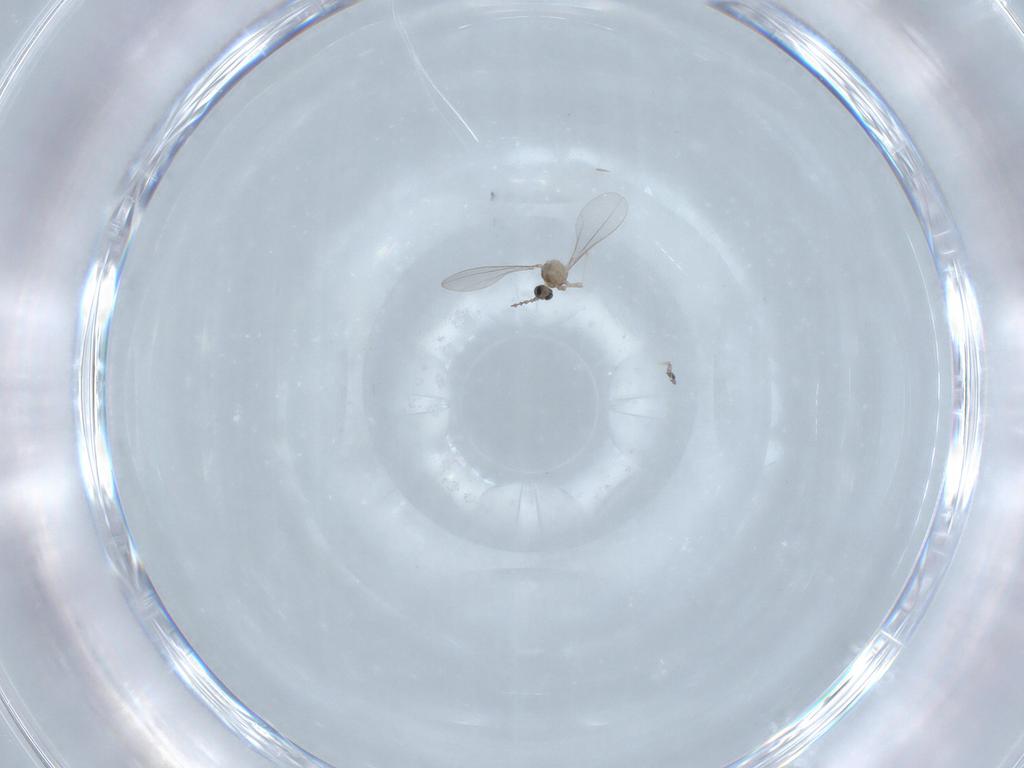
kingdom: Animalia
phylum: Arthropoda
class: Insecta
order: Diptera
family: Cecidomyiidae
